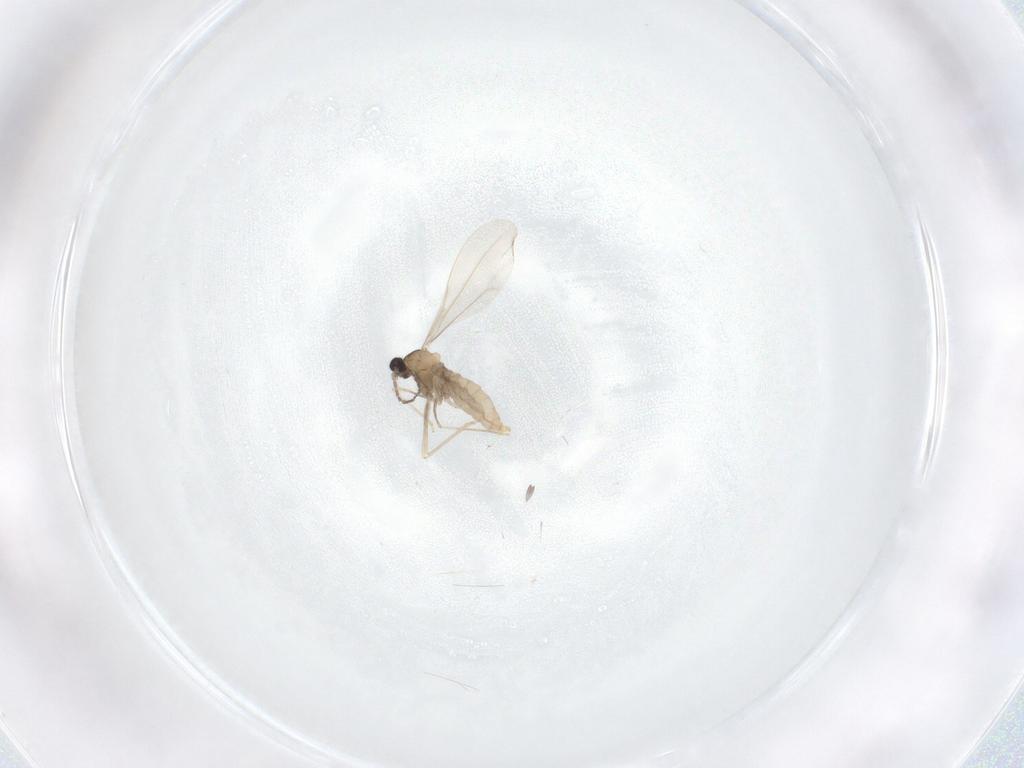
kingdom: Animalia
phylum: Arthropoda
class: Insecta
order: Diptera
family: Cecidomyiidae
